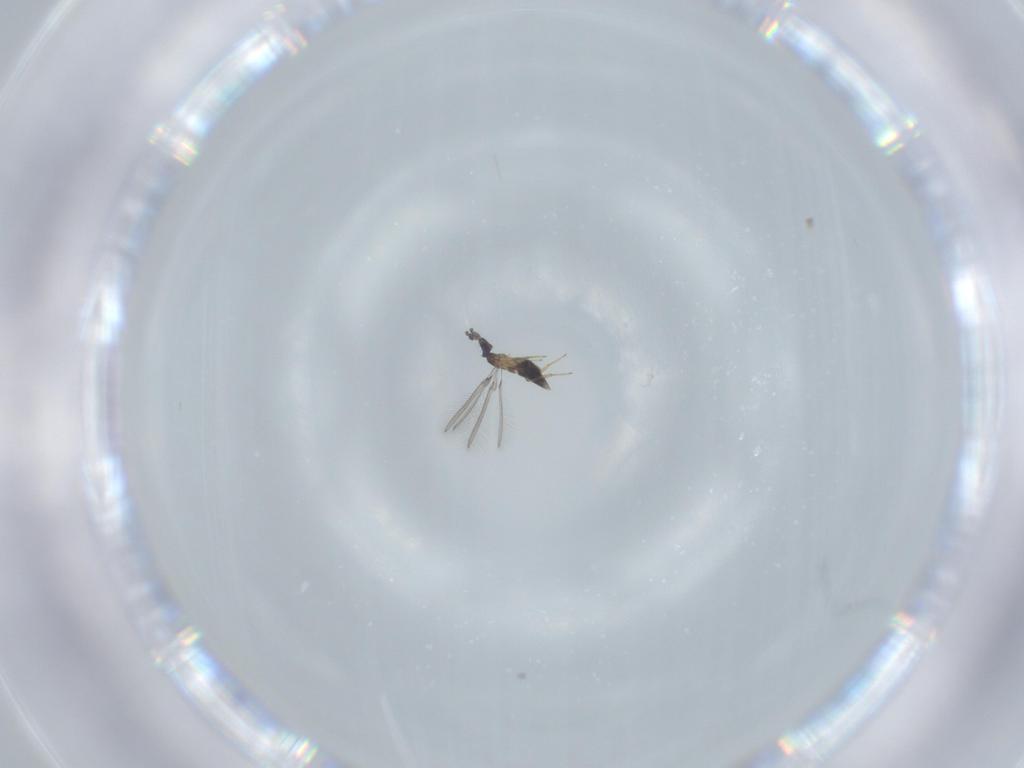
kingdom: Animalia
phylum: Arthropoda
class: Insecta
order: Hymenoptera
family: Mymaridae
